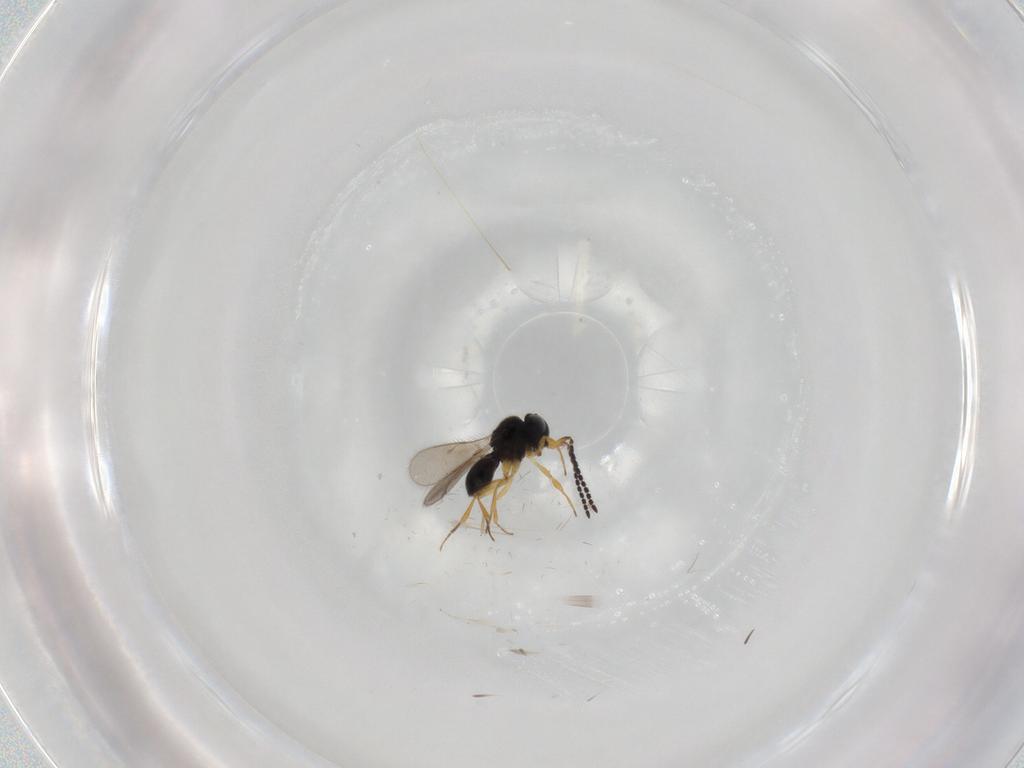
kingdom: Animalia
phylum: Arthropoda
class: Insecta
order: Hymenoptera
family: Scelionidae
